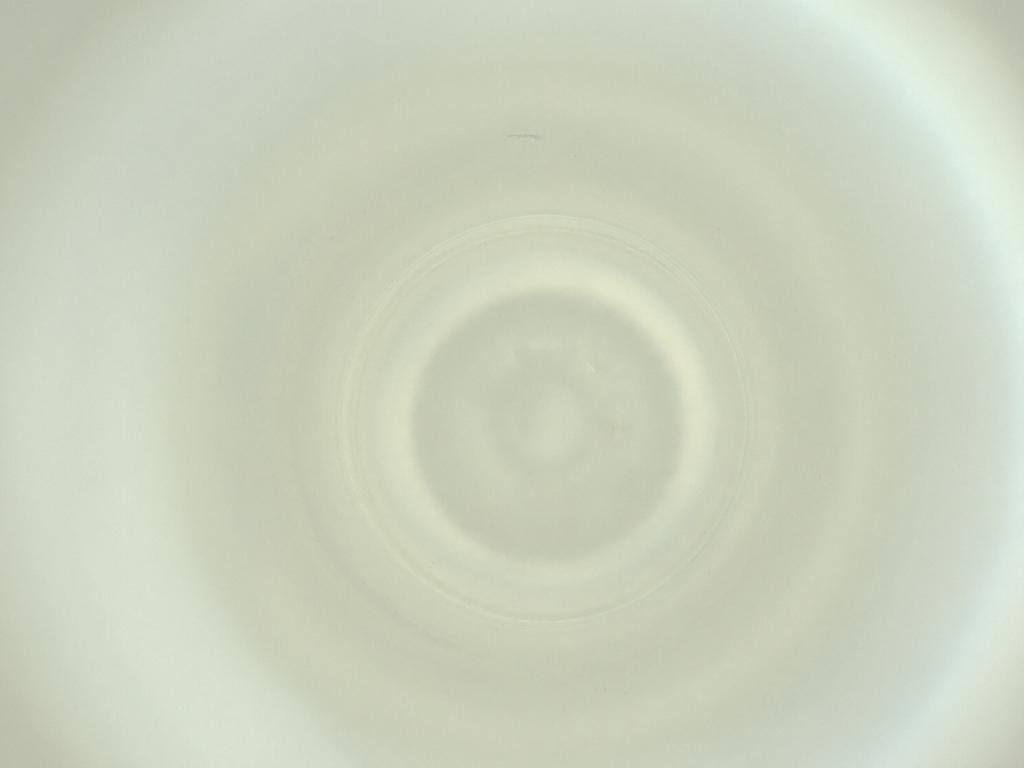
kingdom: Animalia
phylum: Arthropoda
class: Insecta
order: Diptera
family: Cecidomyiidae
